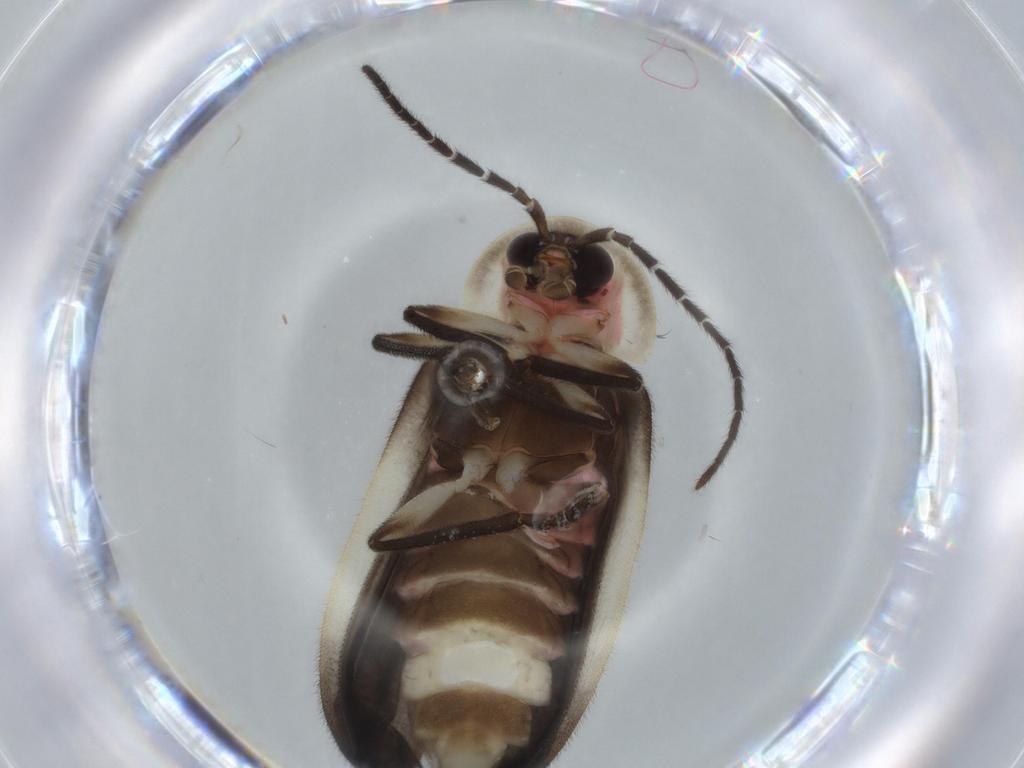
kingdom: Animalia
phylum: Arthropoda
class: Insecta
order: Coleoptera
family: Lampyridae
